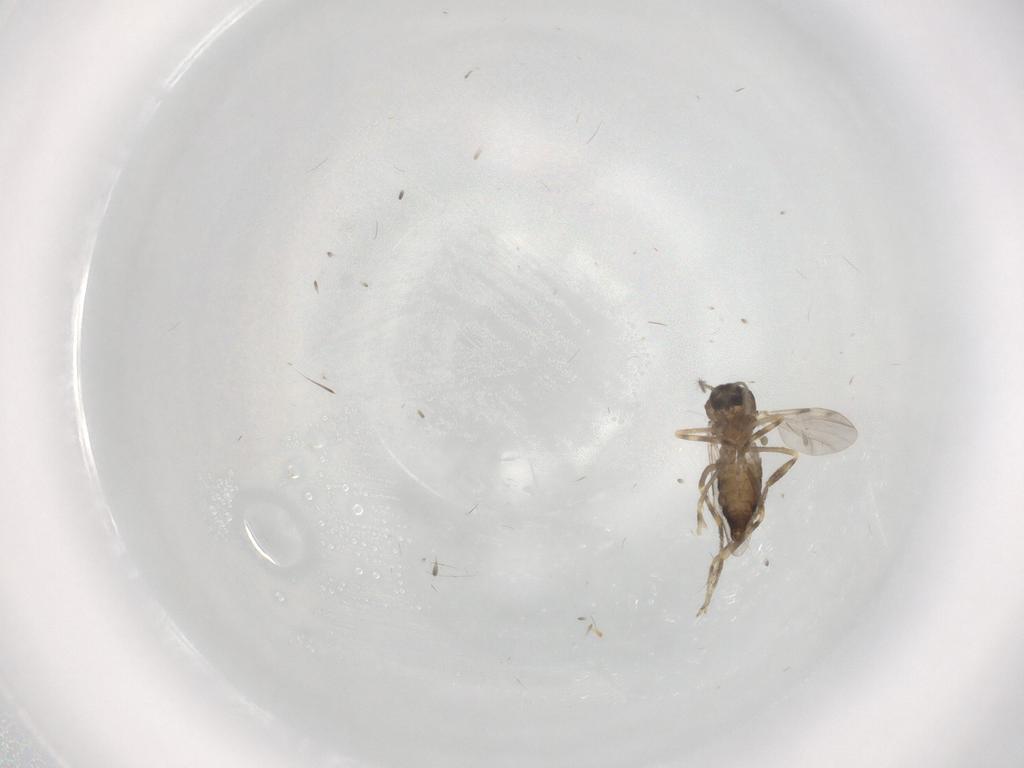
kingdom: Animalia
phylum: Arthropoda
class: Insecta
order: Diptera
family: Ceratopogonidae
